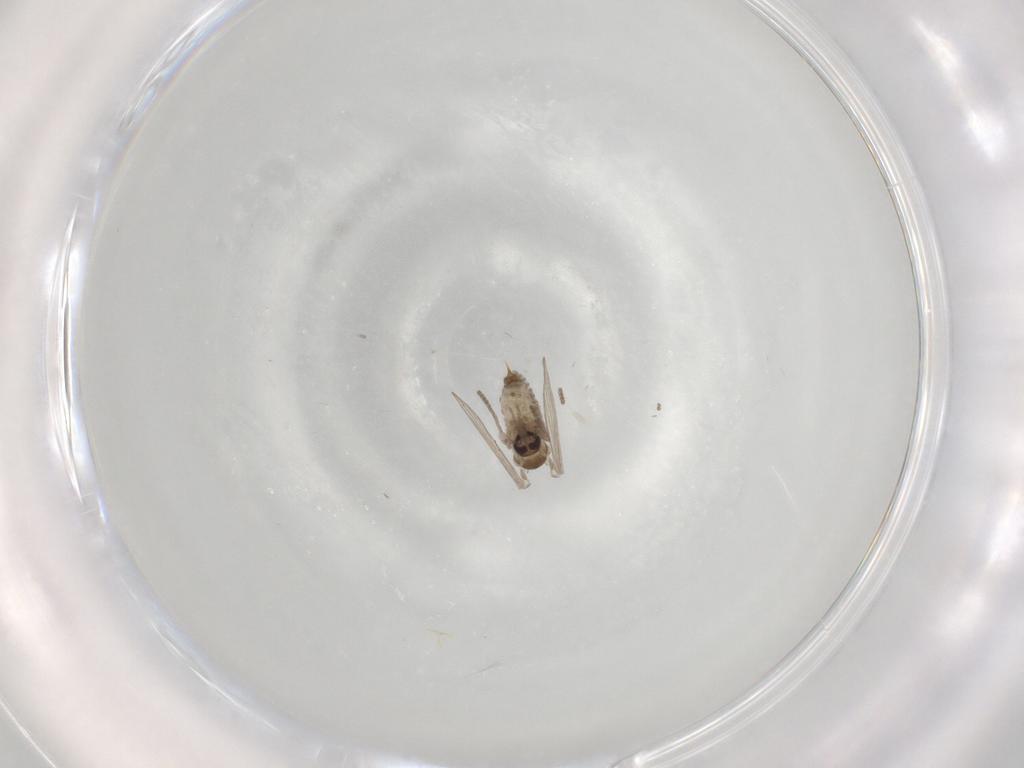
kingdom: Animalia
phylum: Arthropoda
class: Insecta
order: Diptera
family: Psychodidae
